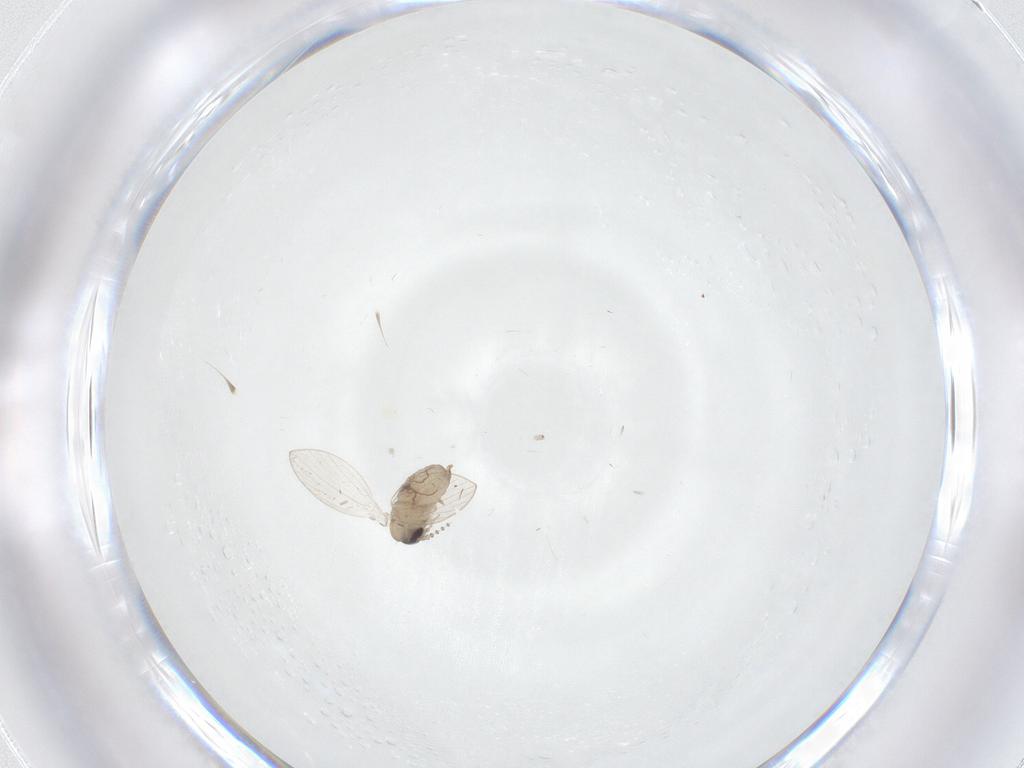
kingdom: Animalia
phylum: Arthropoda
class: Insecta
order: Diptera
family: Psychodidae
